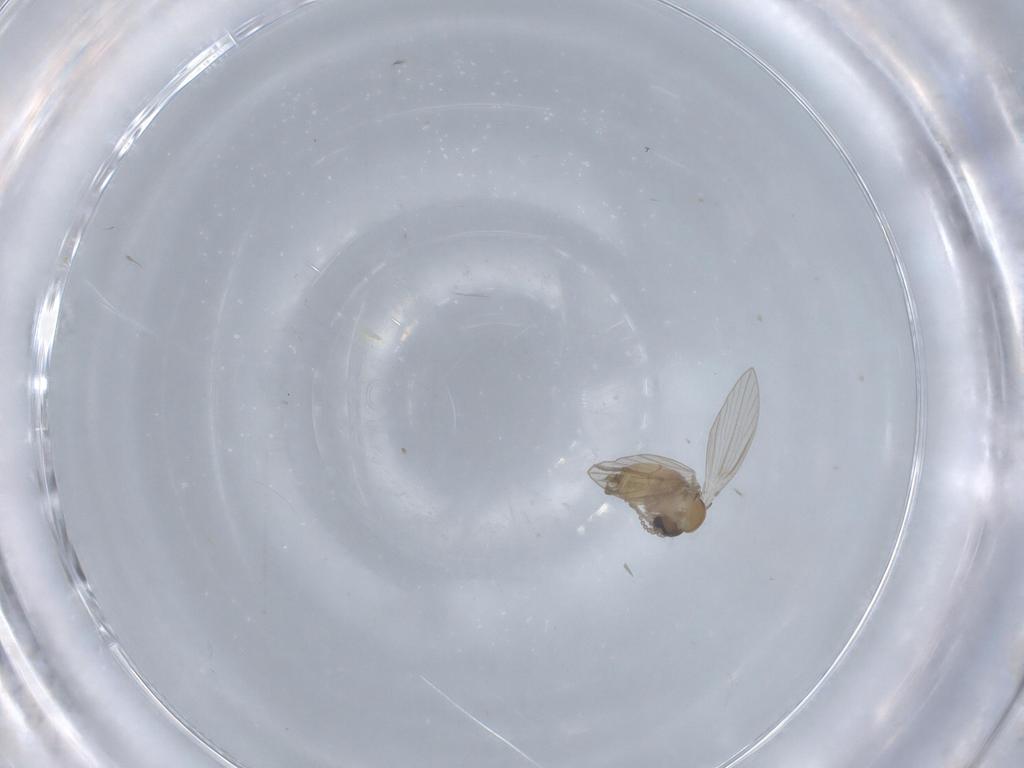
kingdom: Animalia
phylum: Arthropoda
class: Insecta
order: Diptera
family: Psychodidae
